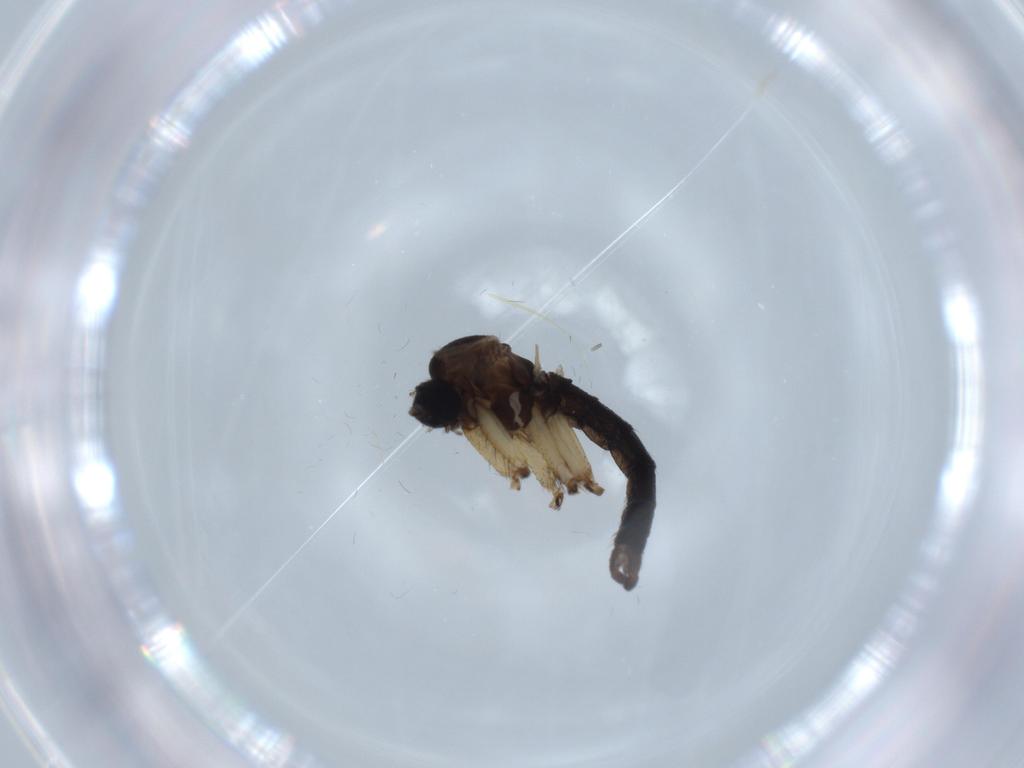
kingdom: Animalia
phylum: Arthropoda
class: Insecta
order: Diptera
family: Sciaridae
